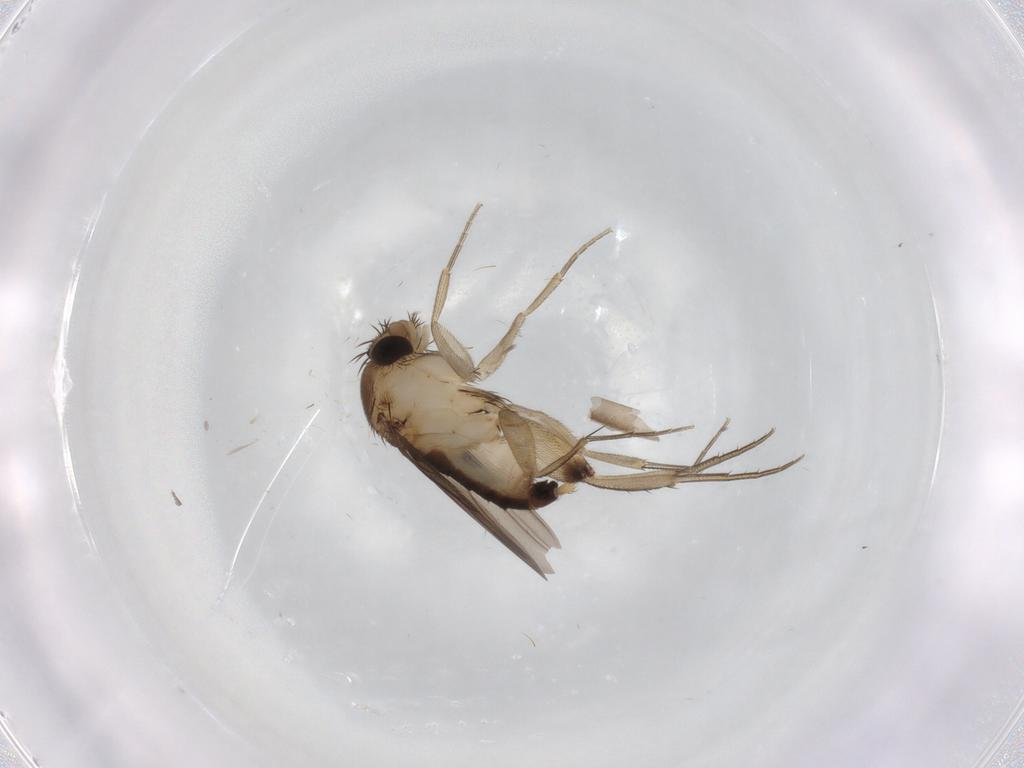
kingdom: Animalia
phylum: Arthropoda
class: Insecta
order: Diptera
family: Phoridae
